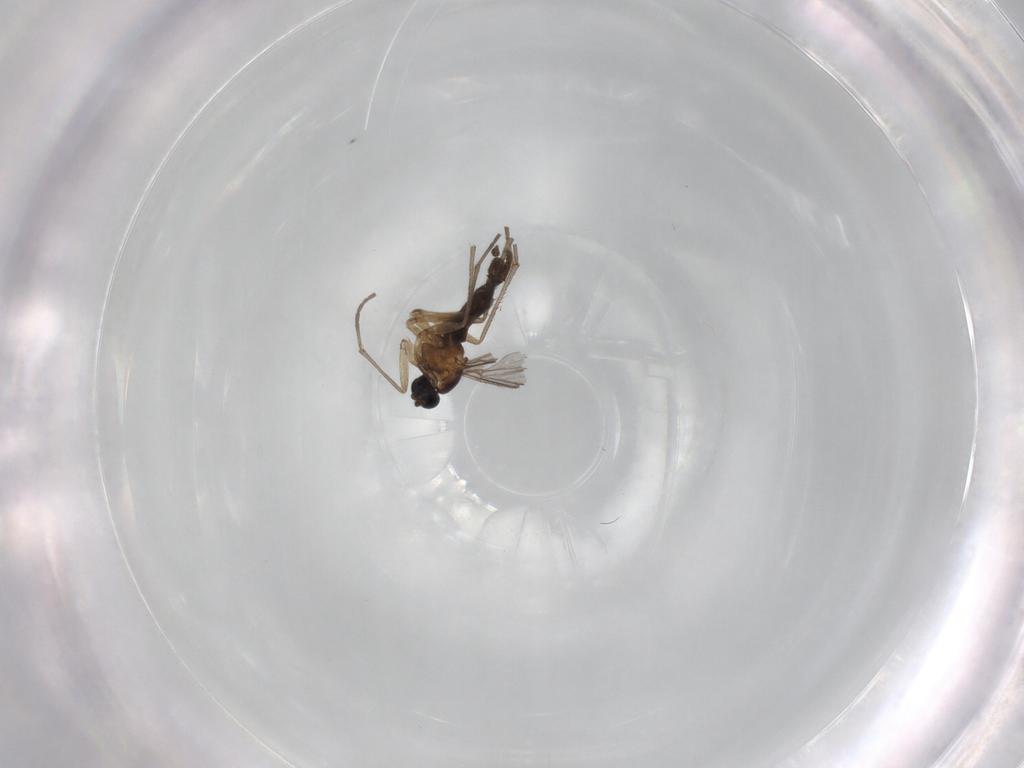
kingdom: Animalia
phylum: Arthropoda
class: Insecta
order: Diptera
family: Sciaridae
